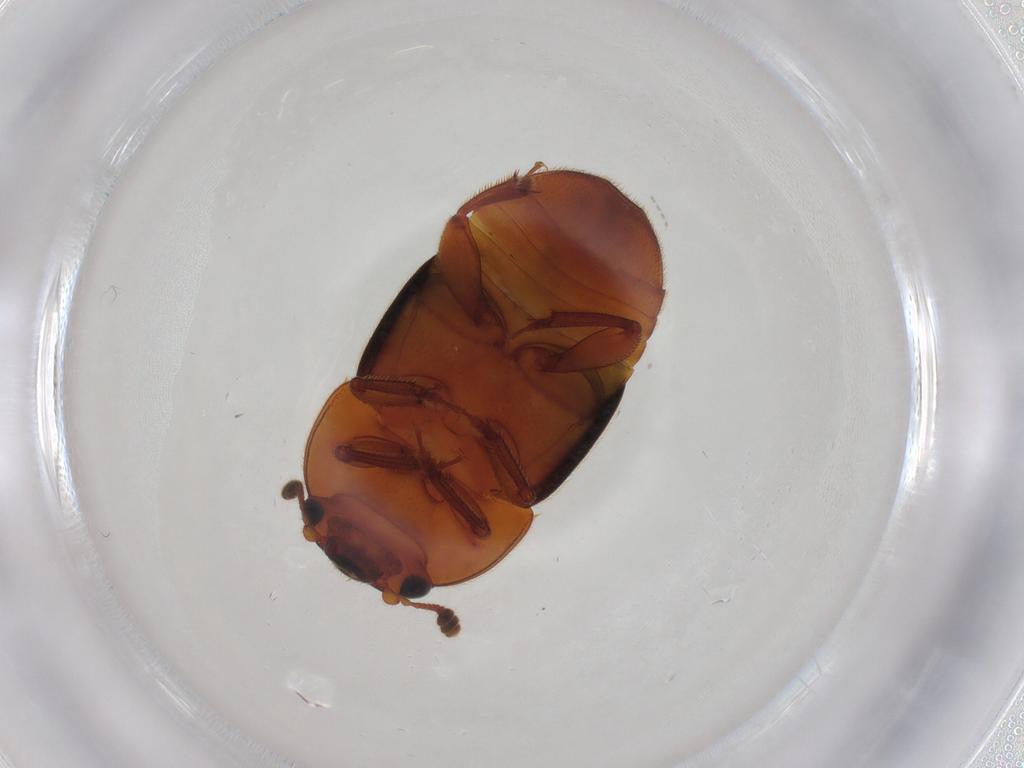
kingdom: Animalia
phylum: Arthropoda
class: Insecta
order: Coleoptera
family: Nitidulidae
